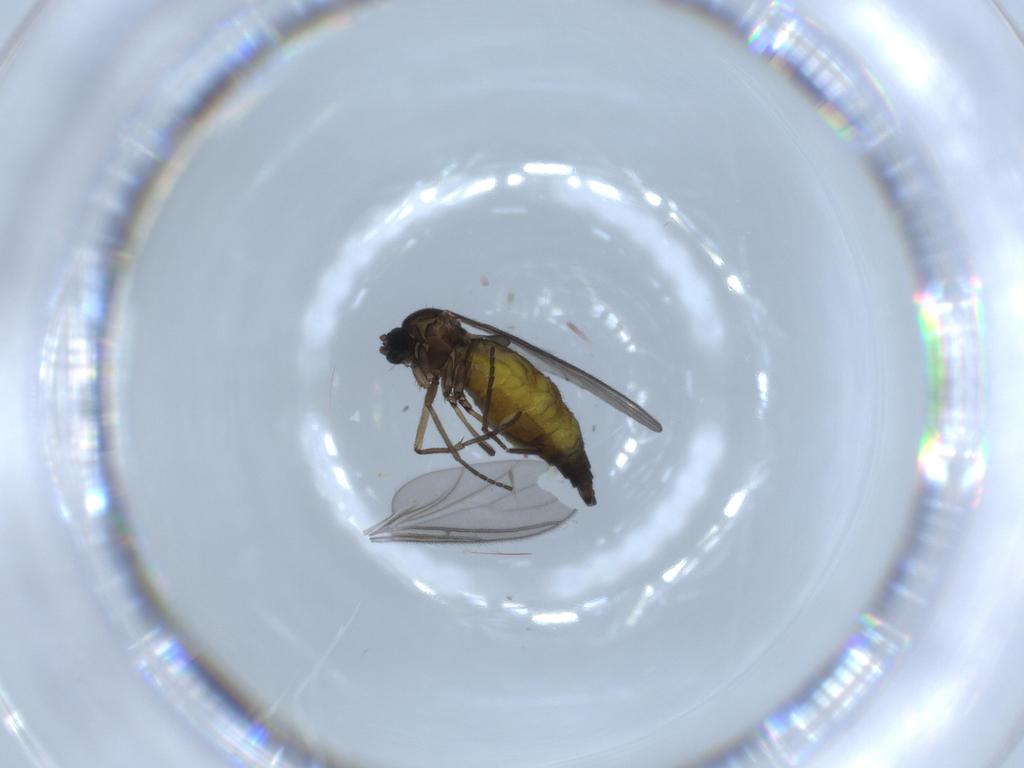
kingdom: Animalia
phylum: Arthropoda
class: Insecta
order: Diptera
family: Sciaridae
